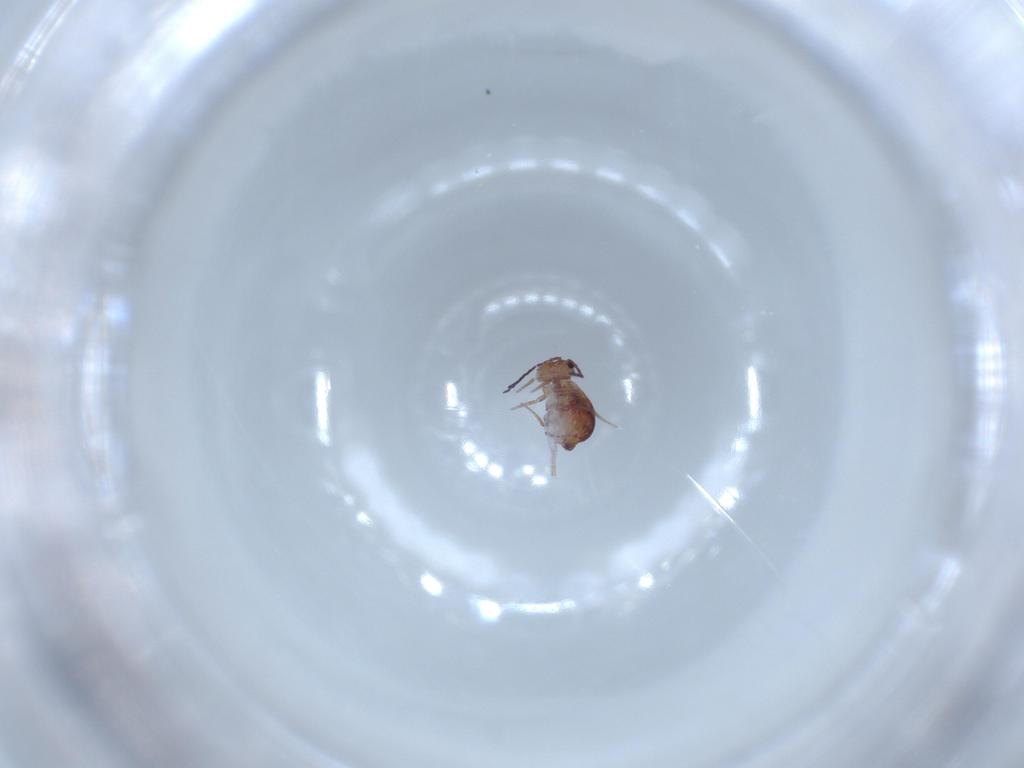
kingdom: Animalia
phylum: Arthropoda
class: Collembola
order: Symphypleona
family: Dicyrtomidae
